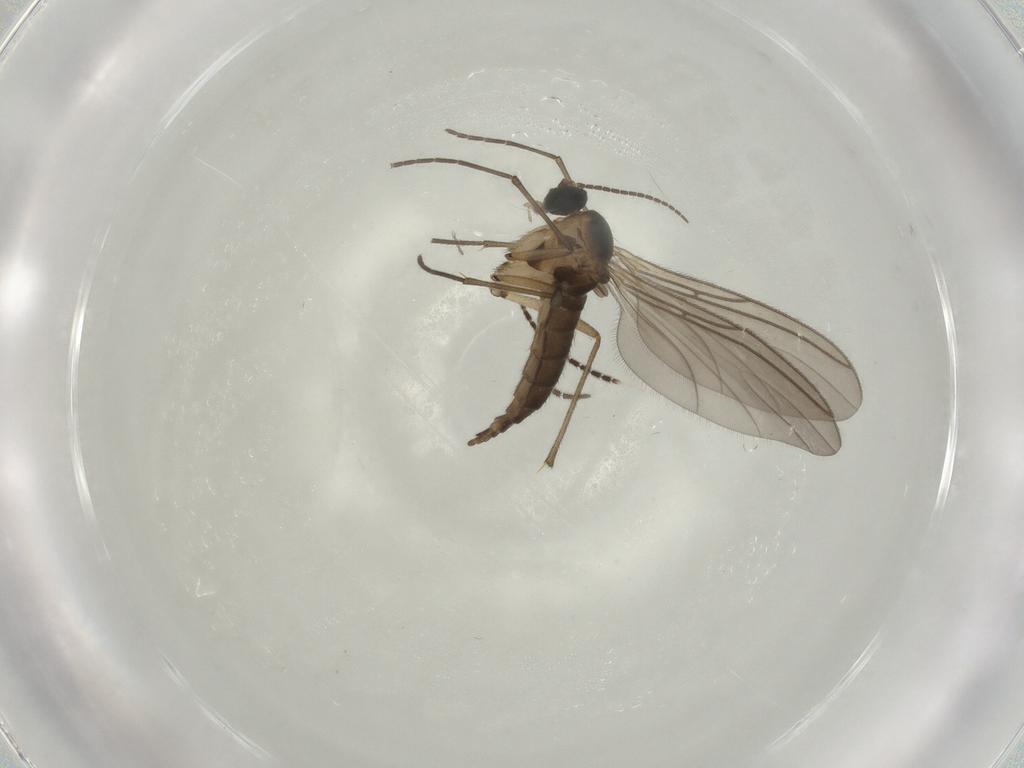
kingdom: Animalia
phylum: Arthropoda
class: Insecta
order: Diptera
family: Sciaridae
